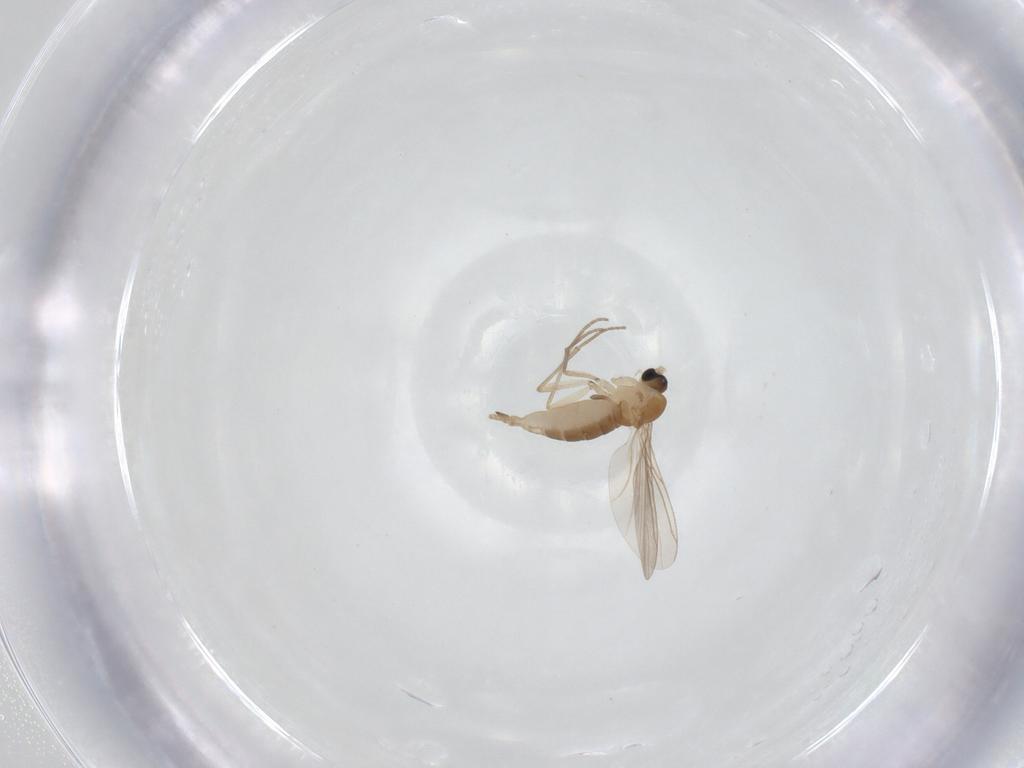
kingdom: Animalia
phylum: Arthropoda
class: Insecta
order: Diptera
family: Sciaridae
